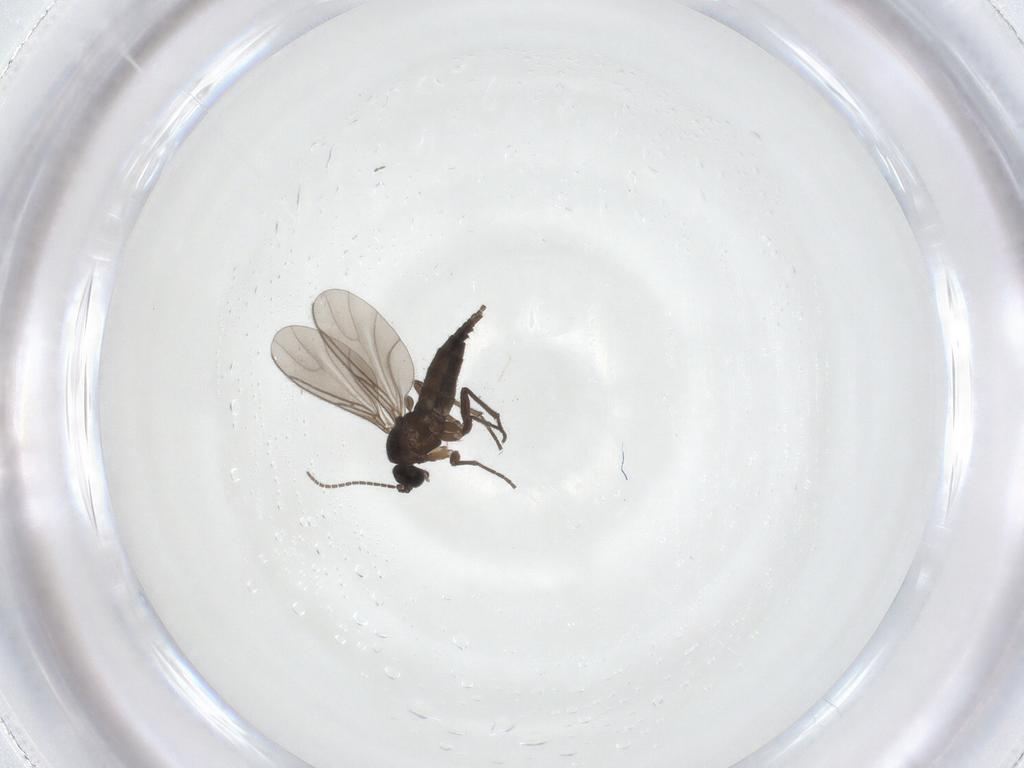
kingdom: Animalia
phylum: Arthropoda
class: Insecta
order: Diptera
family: Sciaridae
